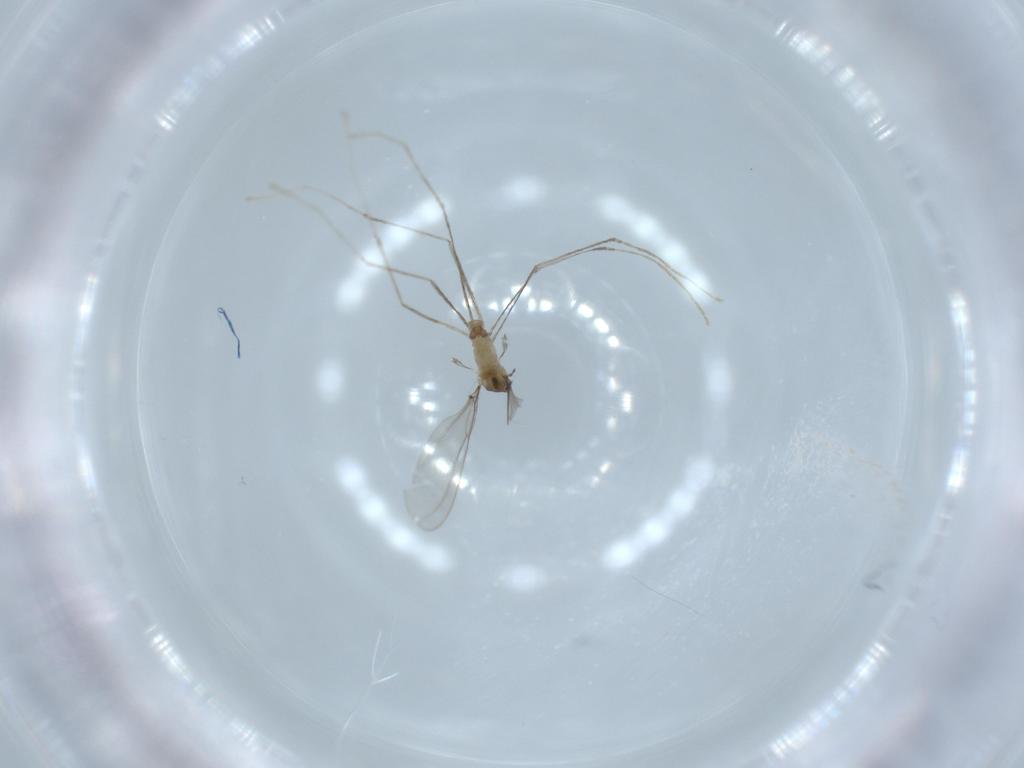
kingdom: Animalia
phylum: Arthropoda
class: Insecta
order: Diptera
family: Cecidomyiidae
